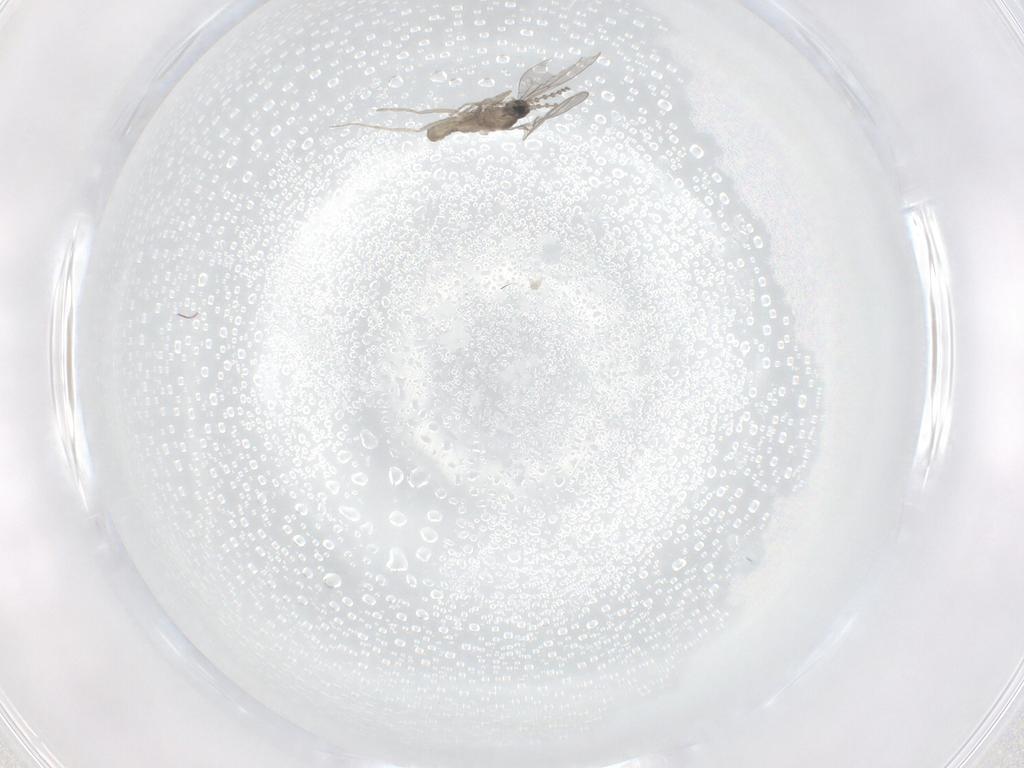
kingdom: Animalia
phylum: Arthropoda
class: Insecta
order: Diptera
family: Cecidomyiidae
